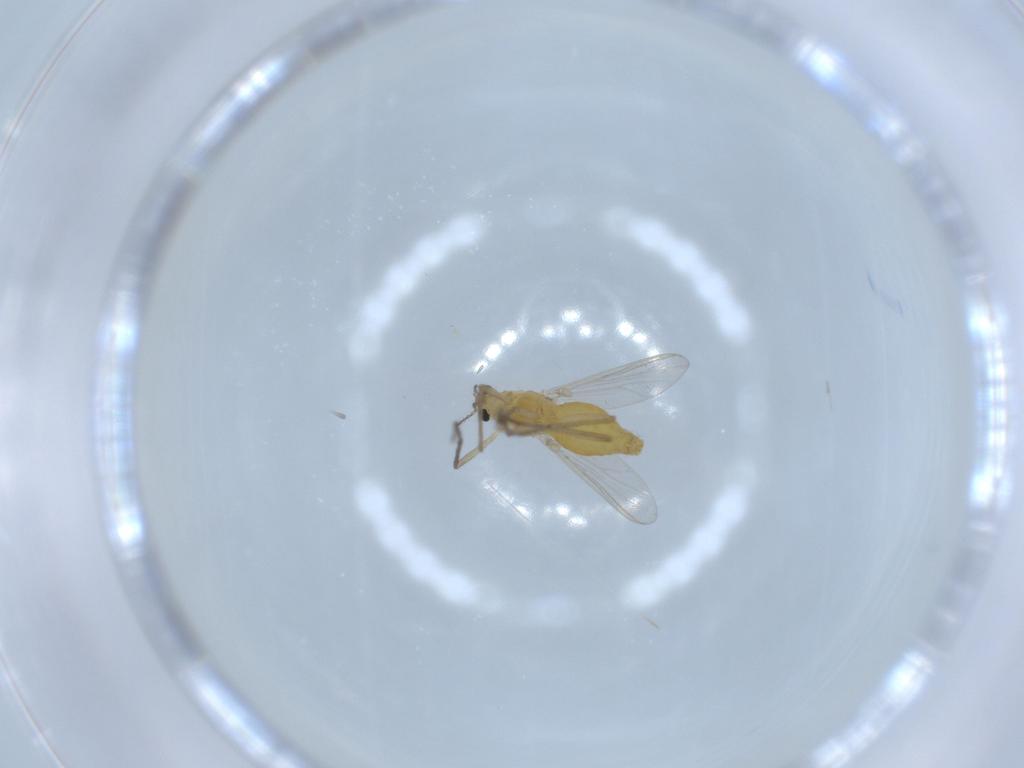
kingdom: Animalia
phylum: Arthropoda
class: Insecta
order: Diptera
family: Chironomidae
